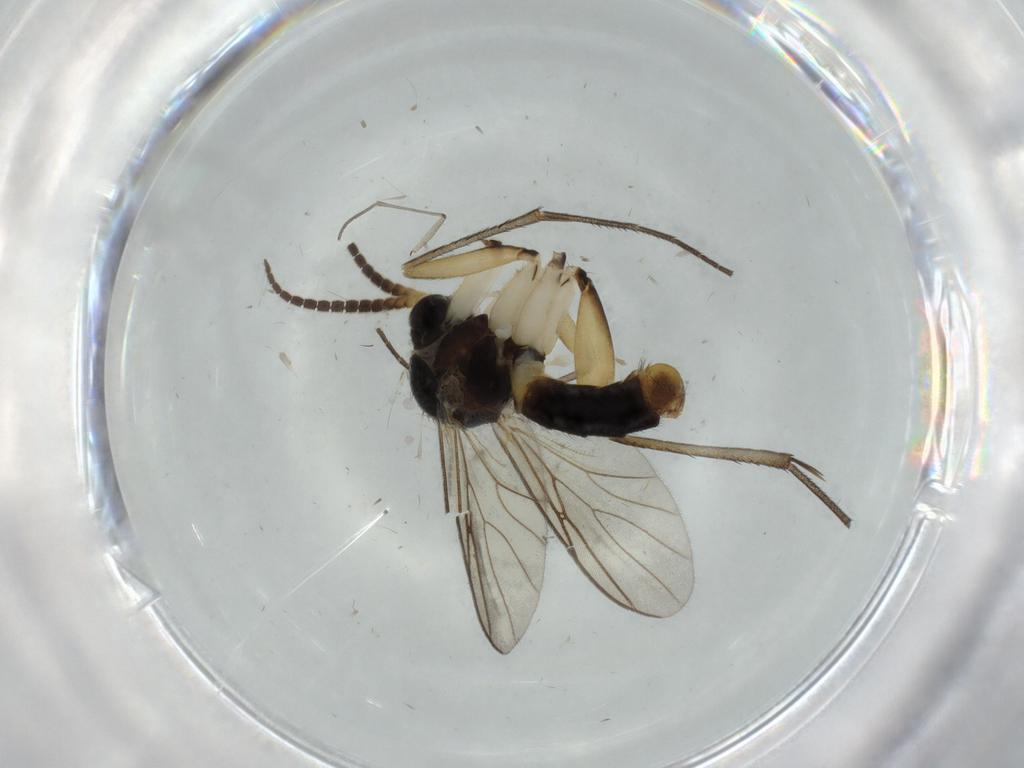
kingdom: Animalia
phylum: Arthropoda
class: Insecta
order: Diptera
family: Mycetophilidae
